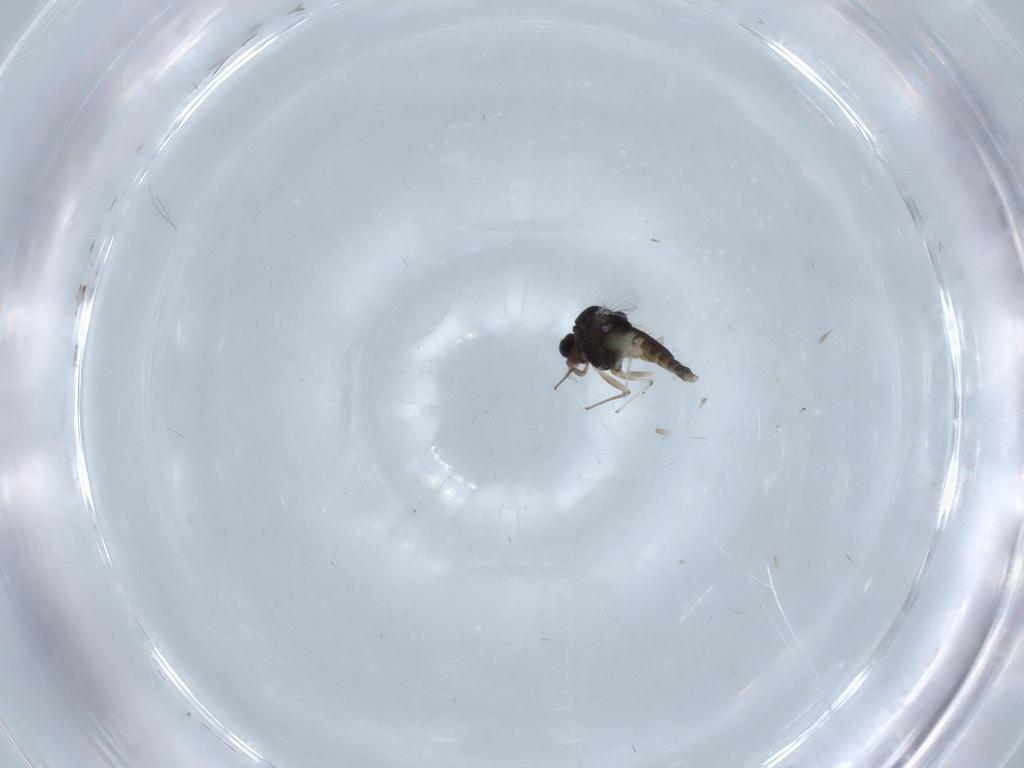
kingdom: Animalia
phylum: Arthropoda
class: Insecta
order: Diptera
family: Chironomidae
